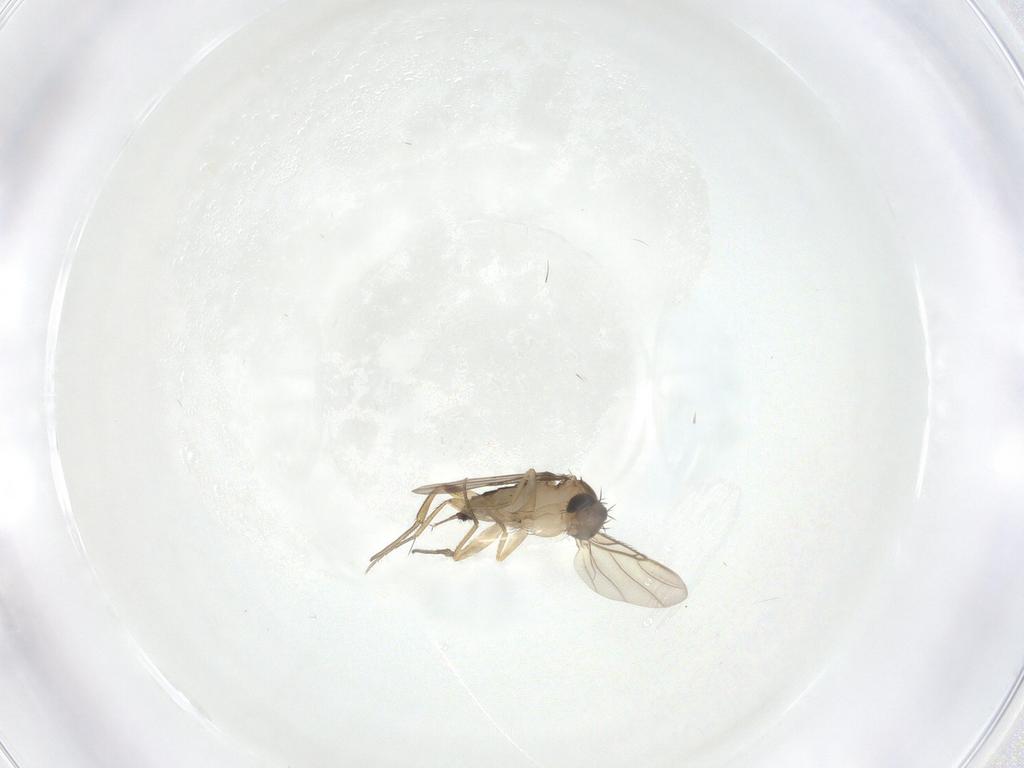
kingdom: Animalia
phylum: Arthropoda
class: Insecta
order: Diptera
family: Phoridae
